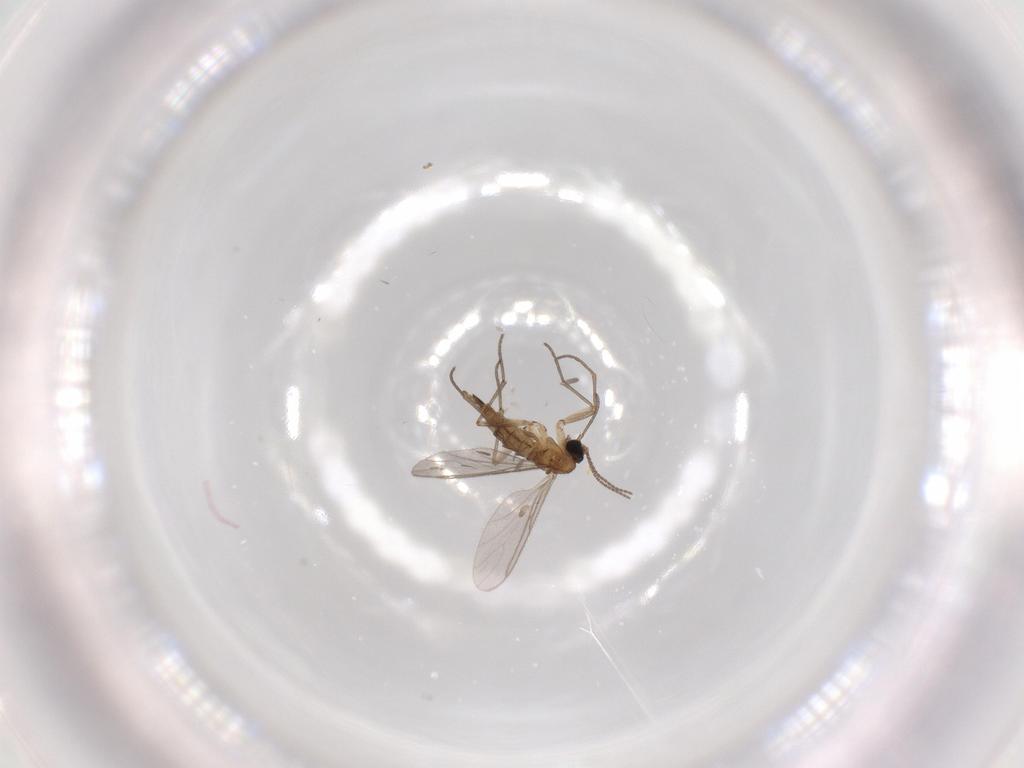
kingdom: Animalia
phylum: Arthropoda
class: Insecta
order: Diptera
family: Sciaridae
